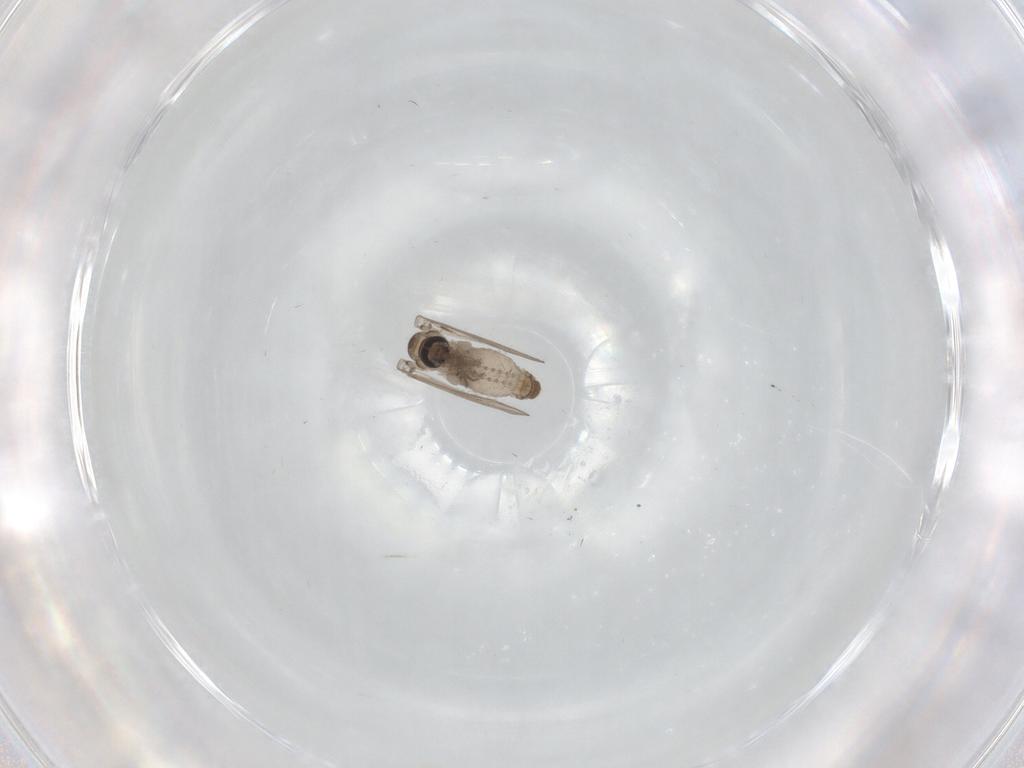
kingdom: Animalia
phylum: Arthropoda
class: Insecta
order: Diptera
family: Psychodidae
